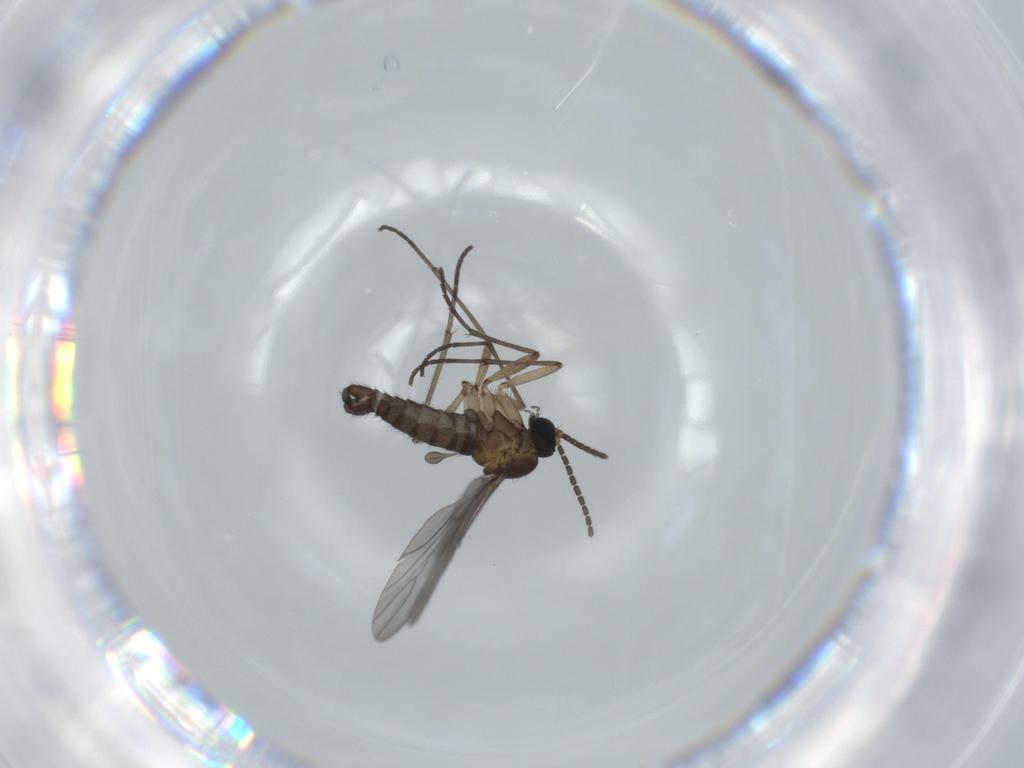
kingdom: Animalia
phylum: Arthropoda
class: Insecta
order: Diptera
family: Sciaridae
